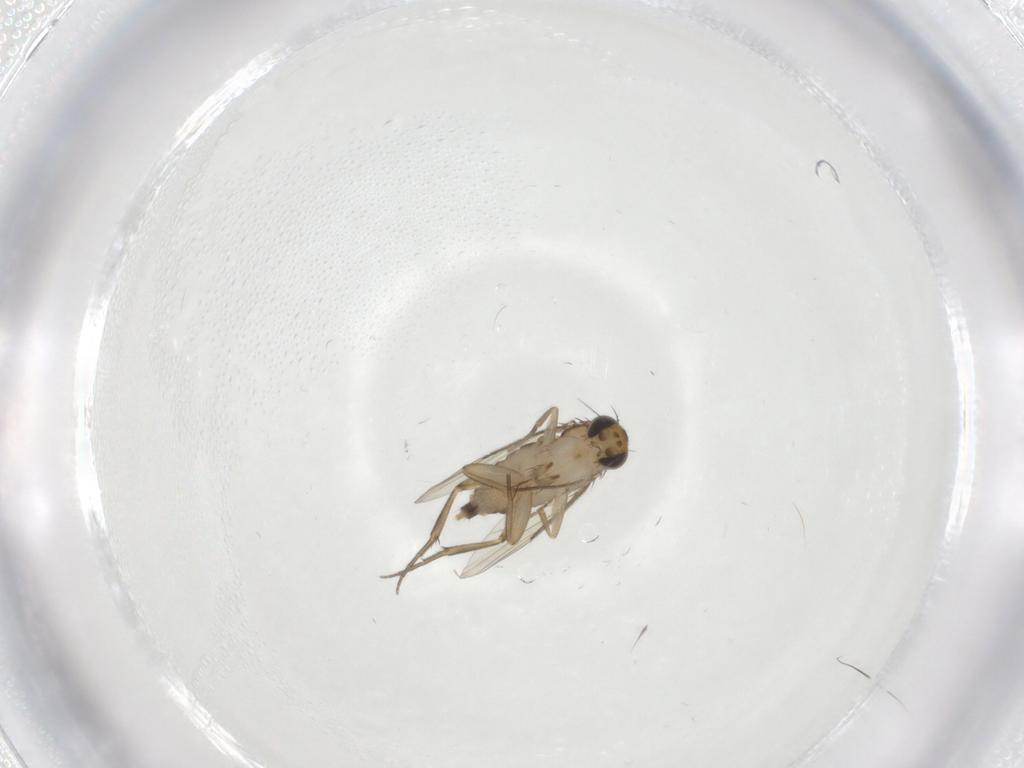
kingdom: Animalia
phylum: Arthropoda
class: Insecta
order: Diptera
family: Phoridae
